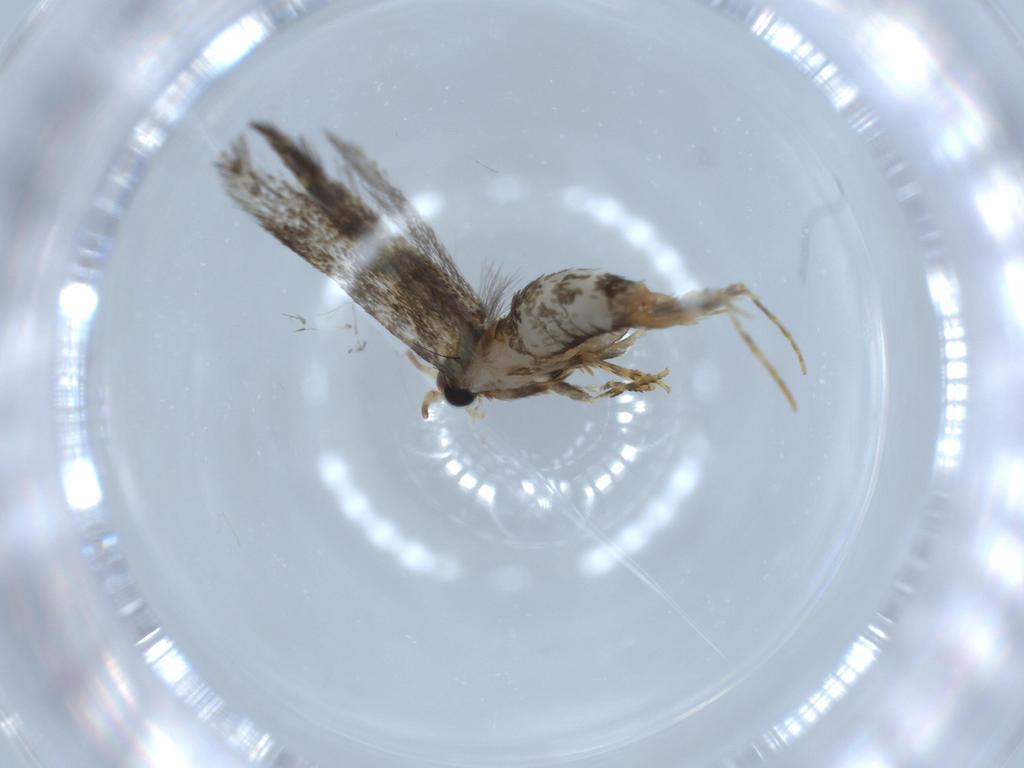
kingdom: Animalia
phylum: Arthropoda
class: Insecta
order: Lepidoptera
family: Tineidae
